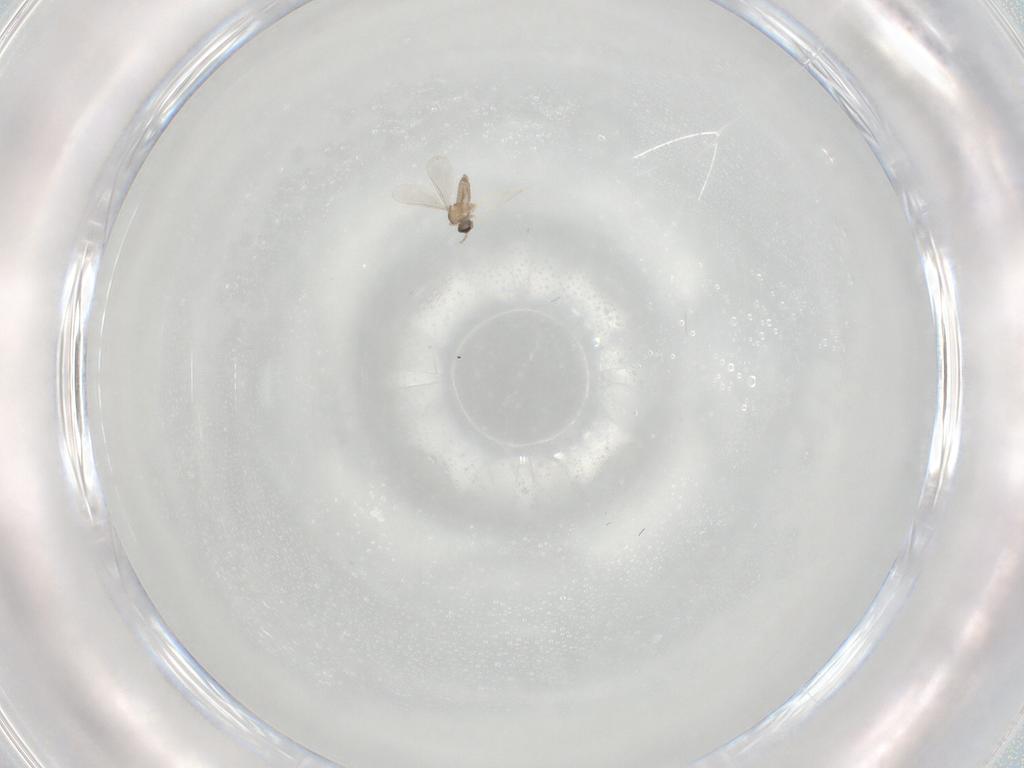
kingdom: Animalia
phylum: Arthropoda
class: Insecta
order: Diptera
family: Cecidomyiidae
